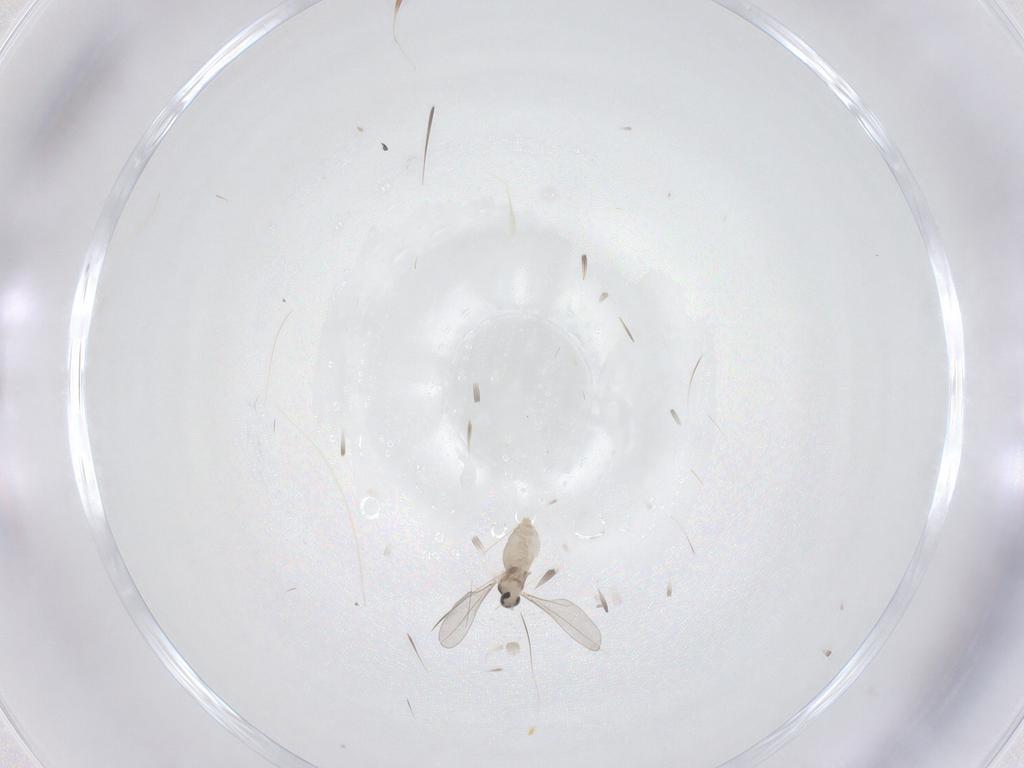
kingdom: Animalia
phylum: Arthropoda
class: Insecta
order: Diptera
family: Cecidomyiidae
